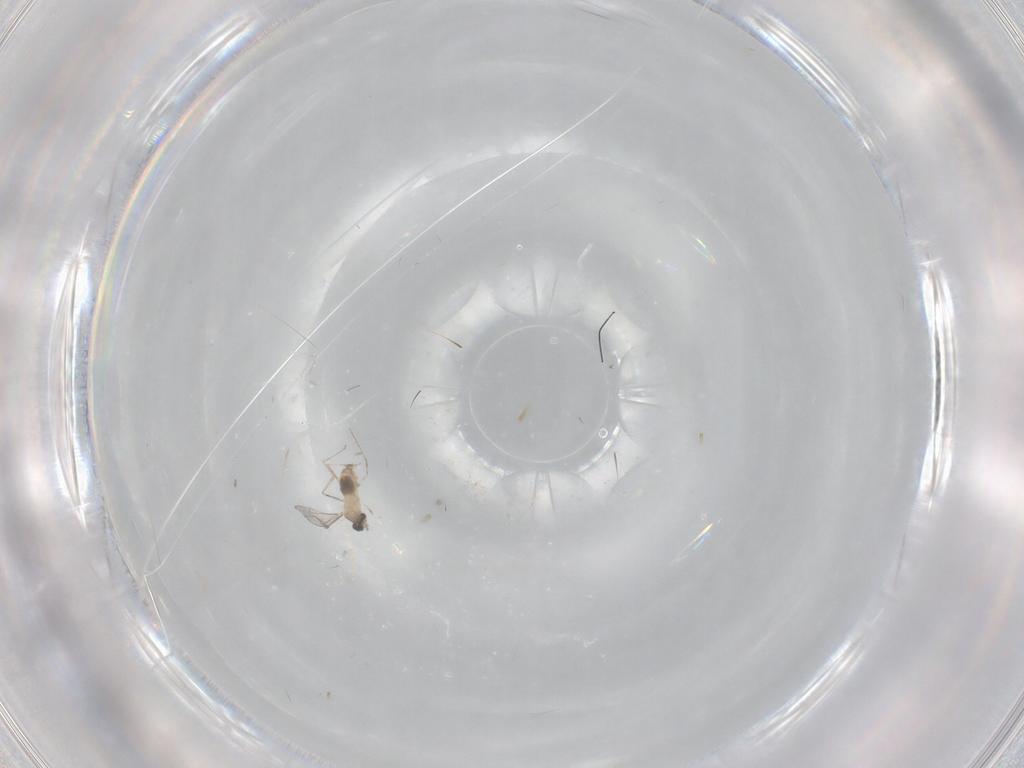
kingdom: Animalia
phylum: Arthropoda
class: Insecta
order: Diptera
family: Cecidomyiidae
